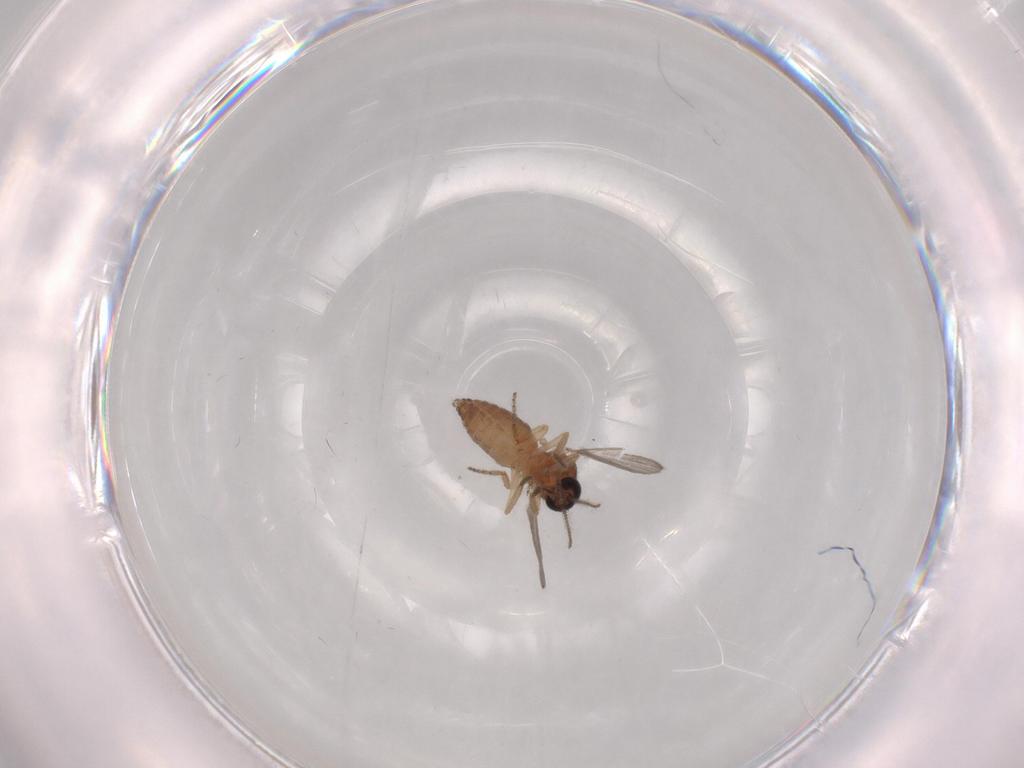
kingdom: Animalia
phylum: Arthropoda
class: Insecta
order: Diptera
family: Ceratopogonidae
